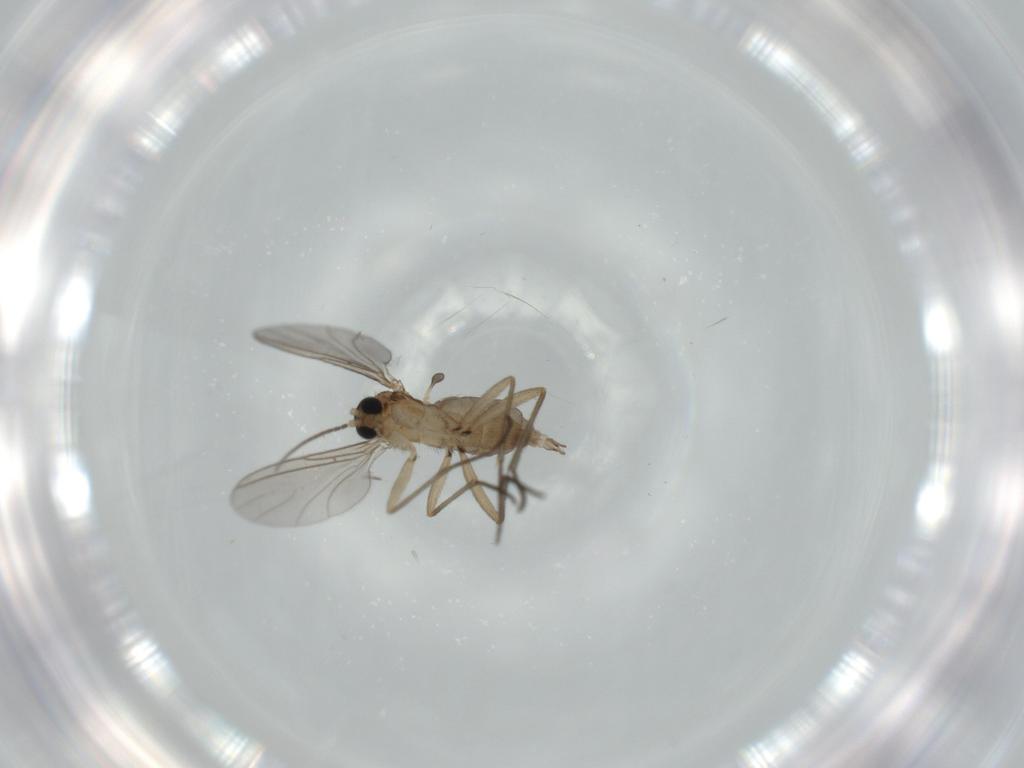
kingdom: Animalia
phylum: Arthropoda
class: Insecta
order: Diptera
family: Sciaridae
